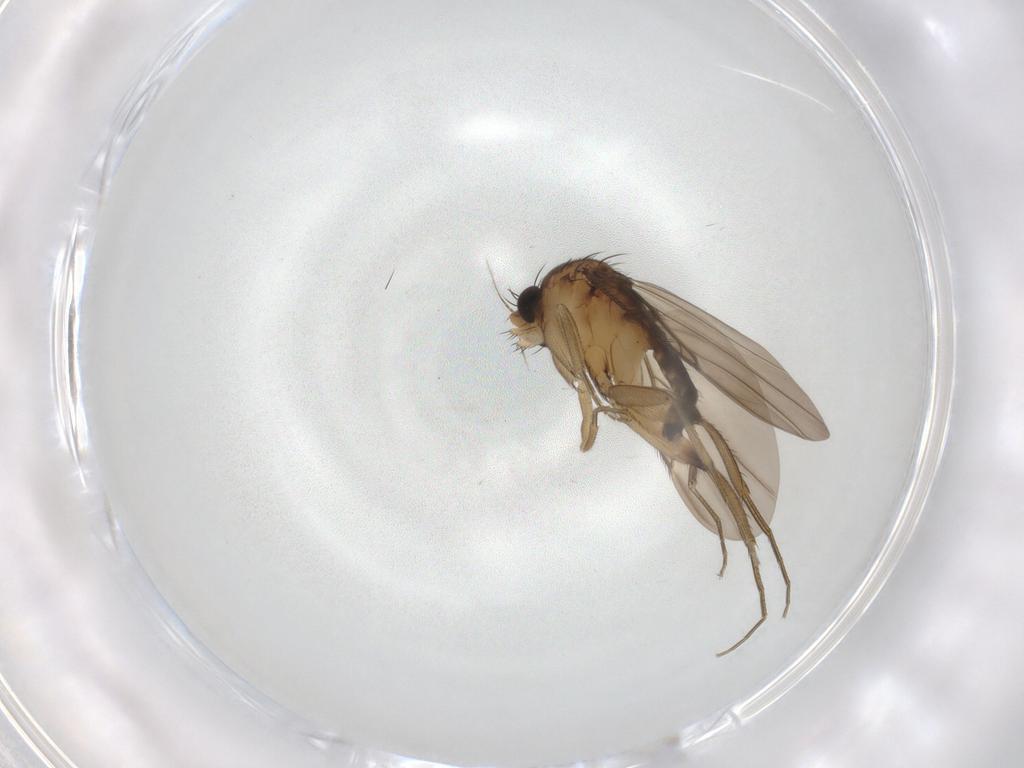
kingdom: Animalia
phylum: Arthropoda
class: Insecta
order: Diptera
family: Phoridae
